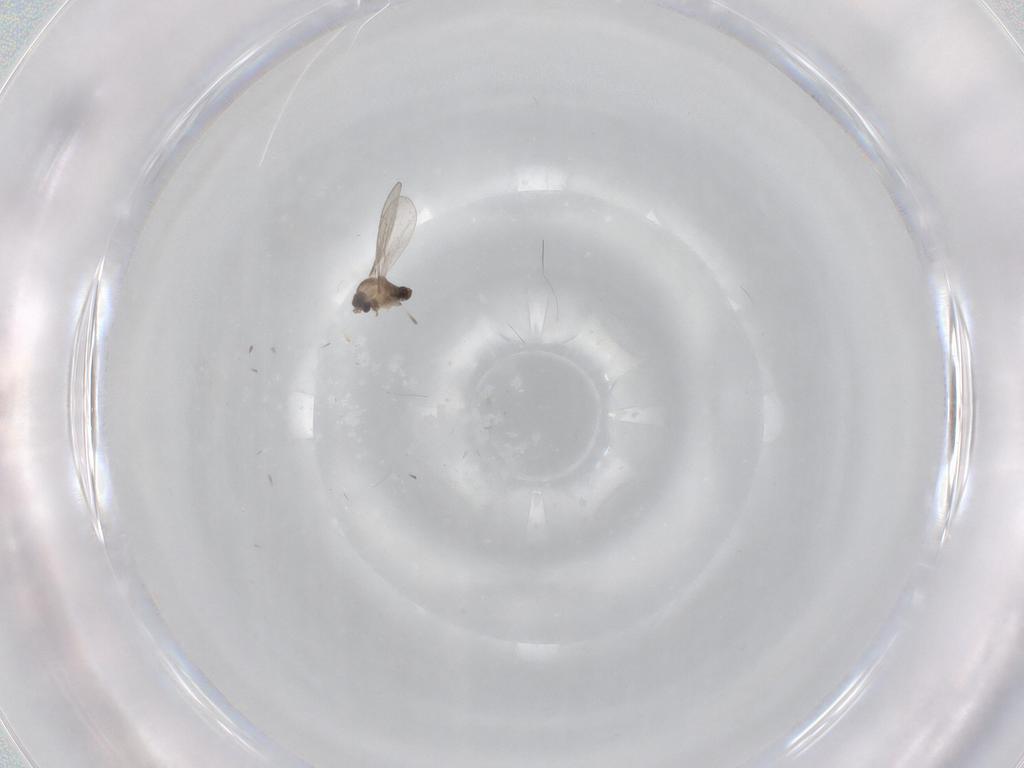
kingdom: Animalia
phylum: Arthropoda
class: Insecta
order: Diptera
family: Cecidomyiidae
